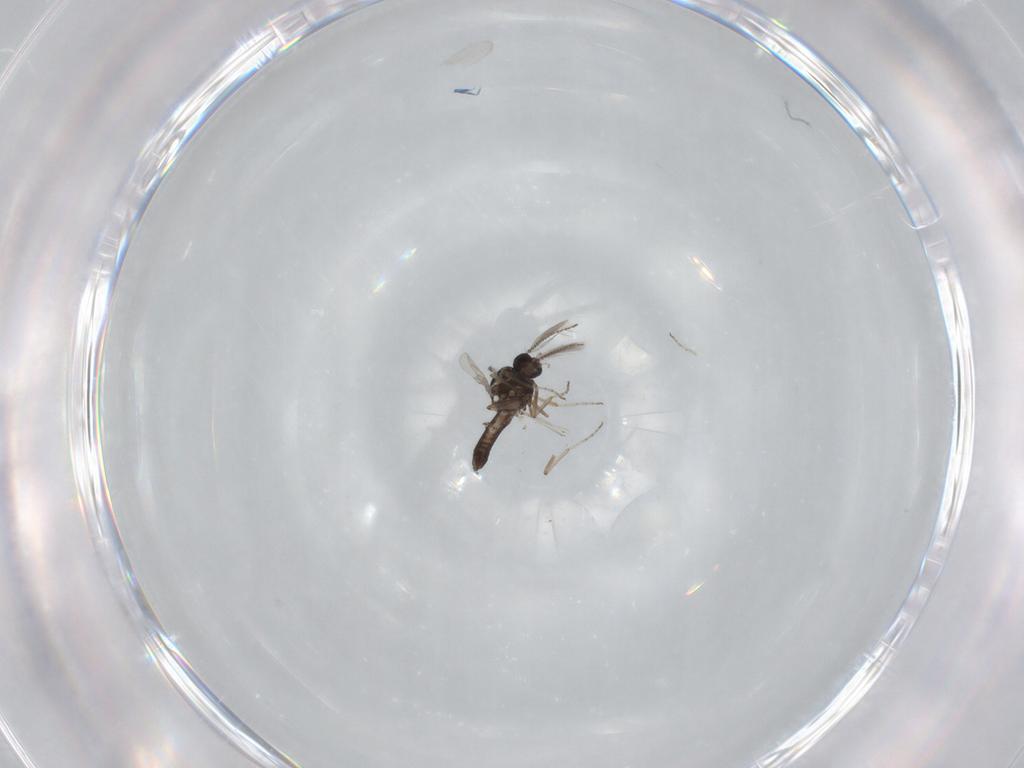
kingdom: Animalia
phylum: Arthropoda
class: Insecta
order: Diptera
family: Ceratopogonidae
